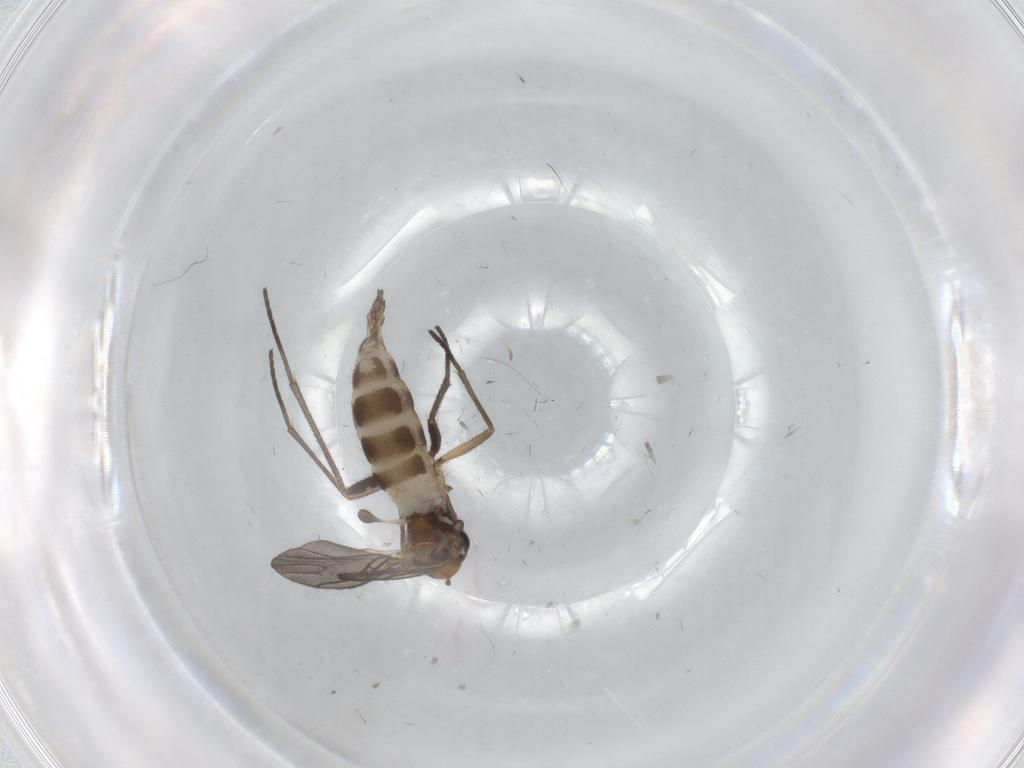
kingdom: Animalia
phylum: Arthropoda
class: Insecta
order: Diptera
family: Sciaridae
